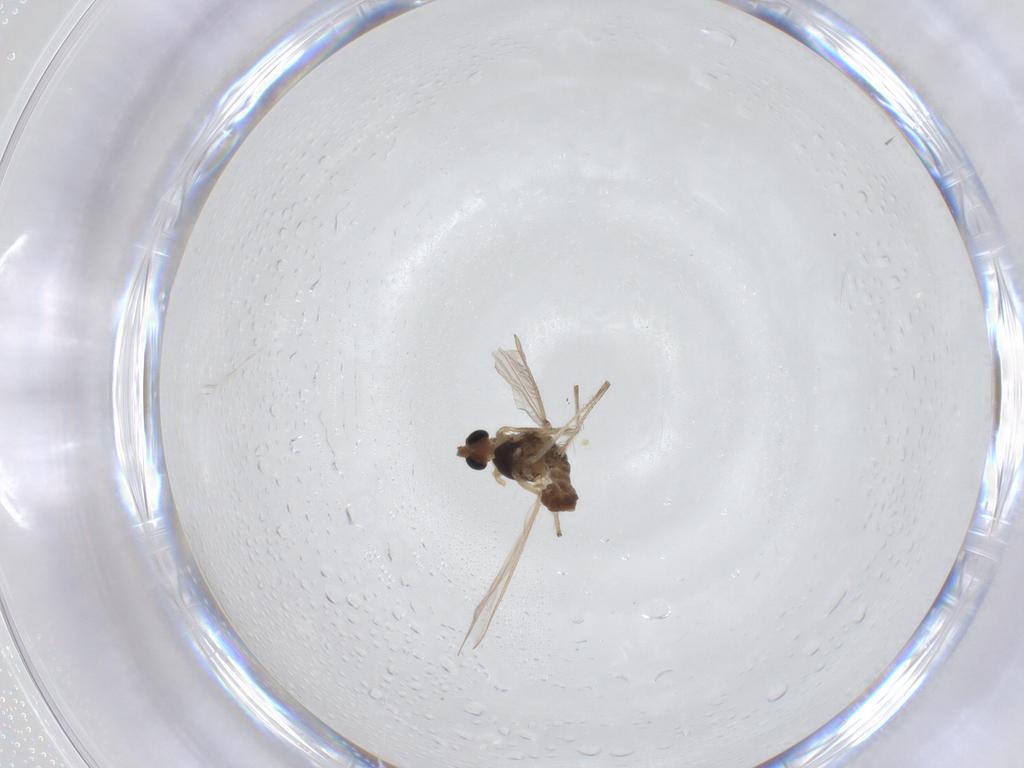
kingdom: Animalia
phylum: Arthropoda
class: Insecta
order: Diptera
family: Chironomidae
